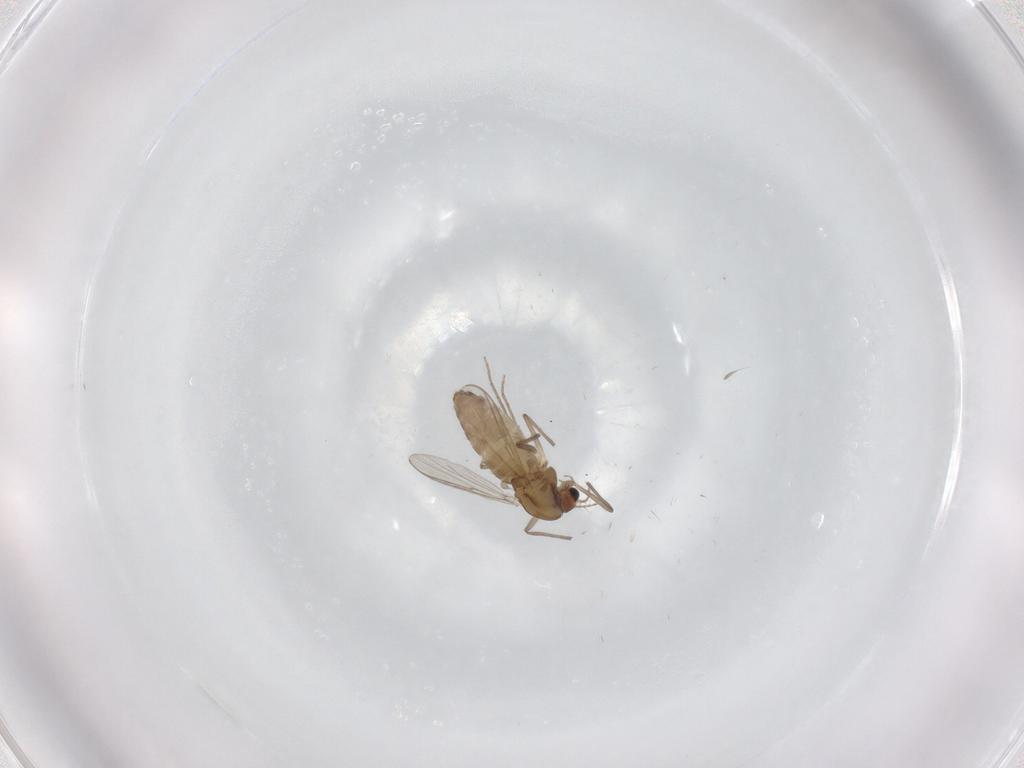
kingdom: Animalia
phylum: Arthropoda
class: Insecta
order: Diptera
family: Chironomidae
